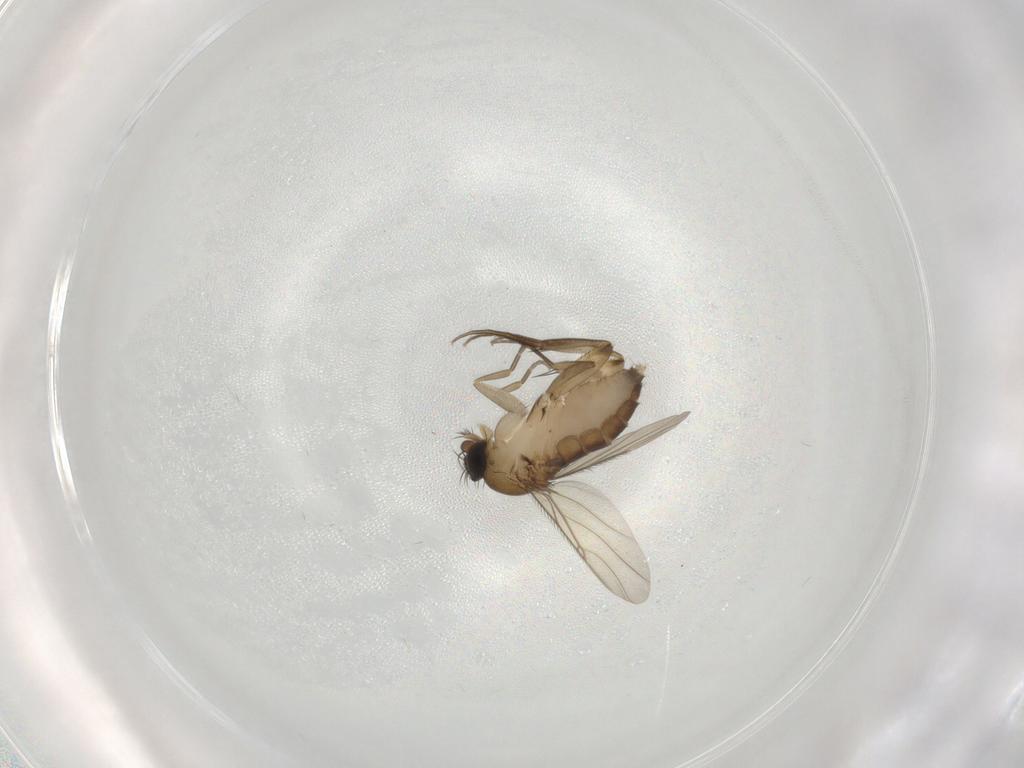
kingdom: Animalia
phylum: Arthropoda
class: Insecta
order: Diptera
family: Phoridae
